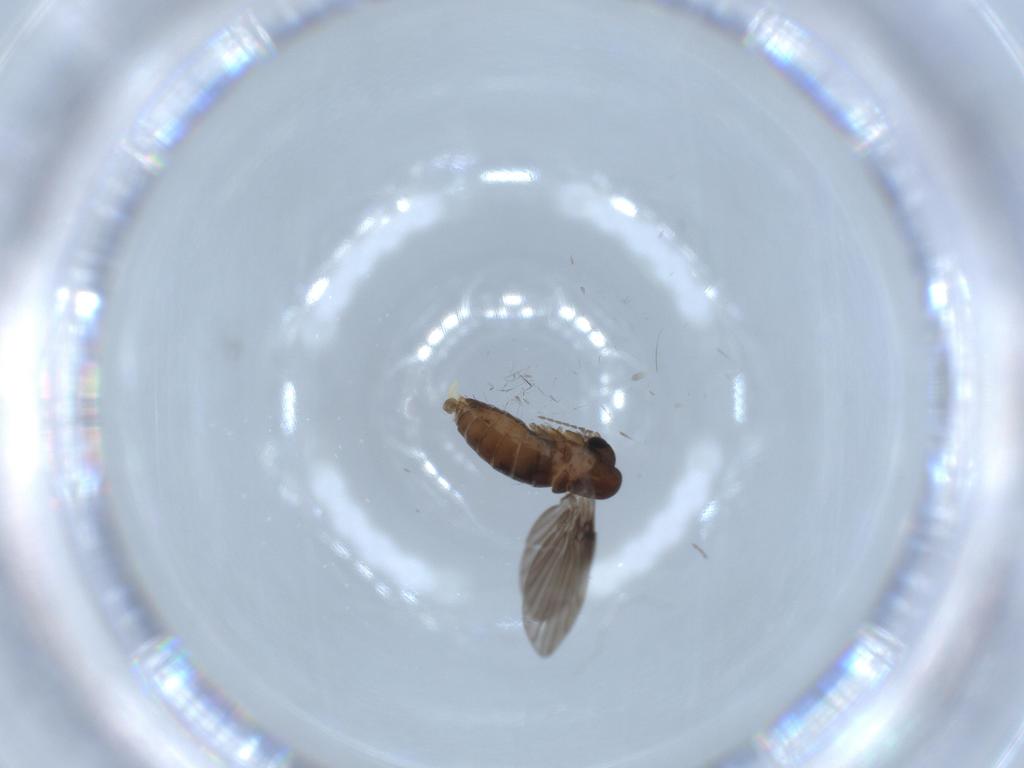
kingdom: Animalia
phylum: Arthropoda
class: Insecta
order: Diptera
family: Psychodidae
